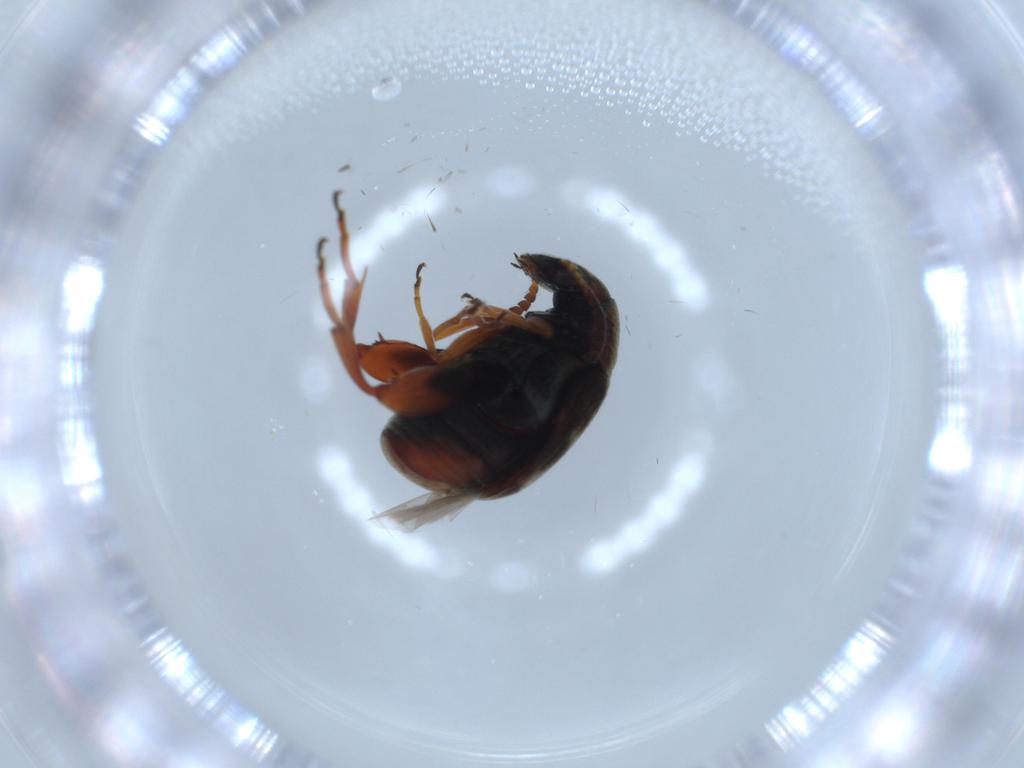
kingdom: Animalia
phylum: Arthropoda
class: Insecta
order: Coleoptera
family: Chrysomelidae
